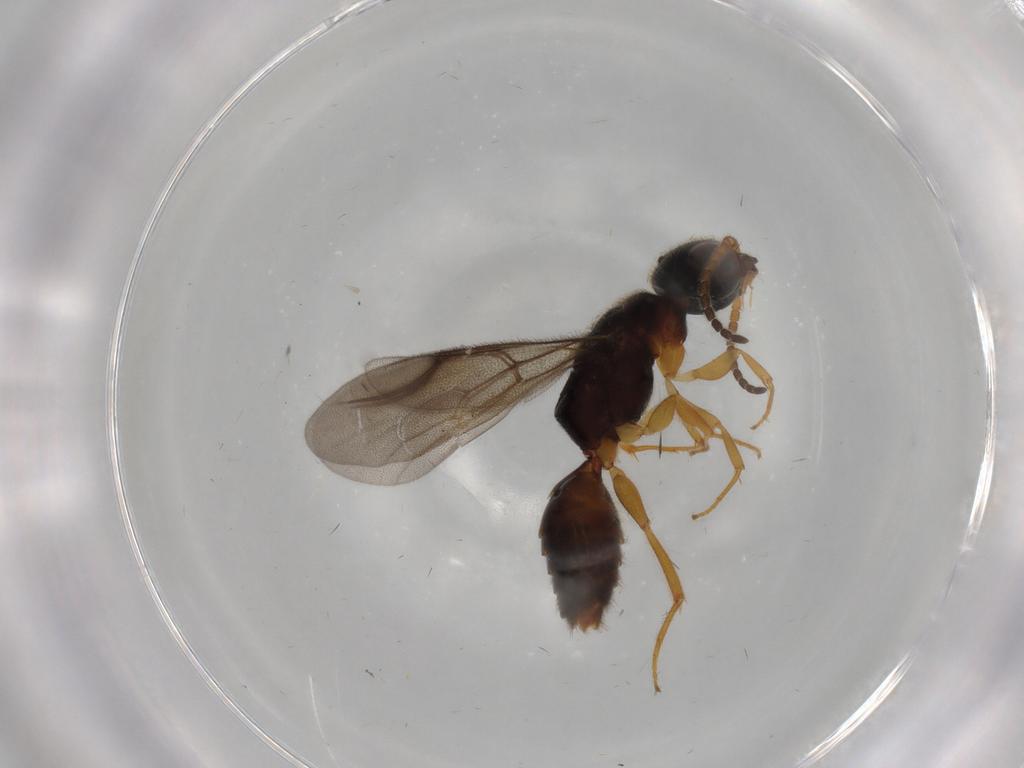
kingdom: Animalia
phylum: Arthropoda
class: Insecta
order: Hymenoptera
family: Bethylidae
